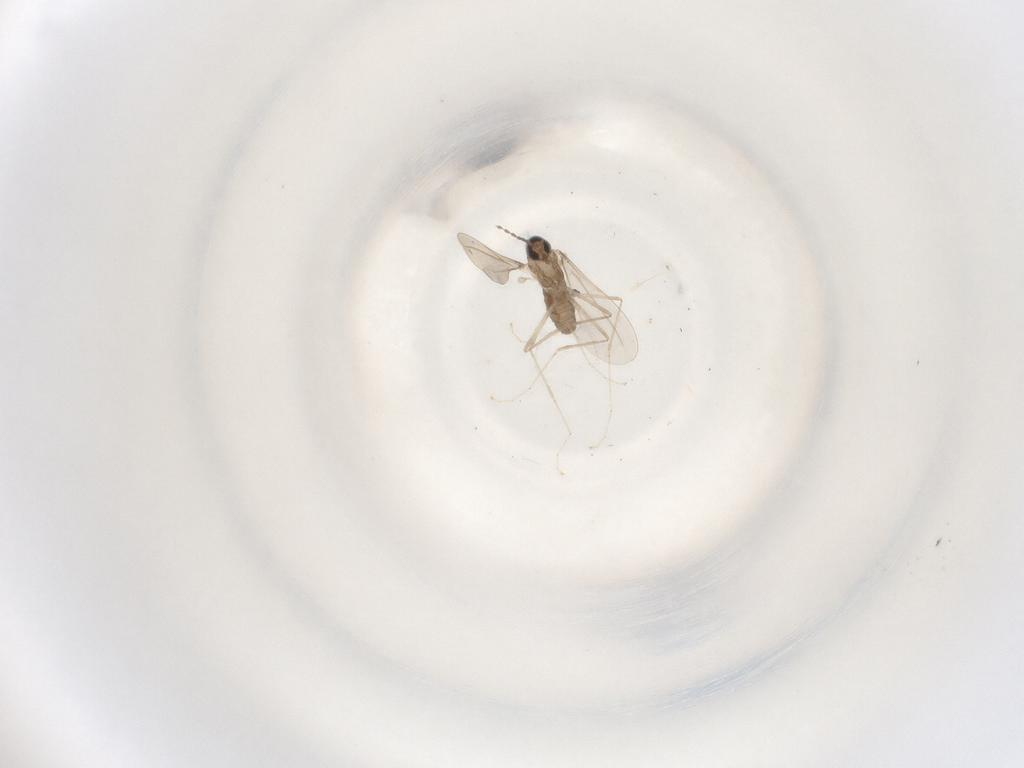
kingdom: Animalia
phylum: Arthropoda
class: Insecta
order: Diptera
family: Cecidomyiidae
